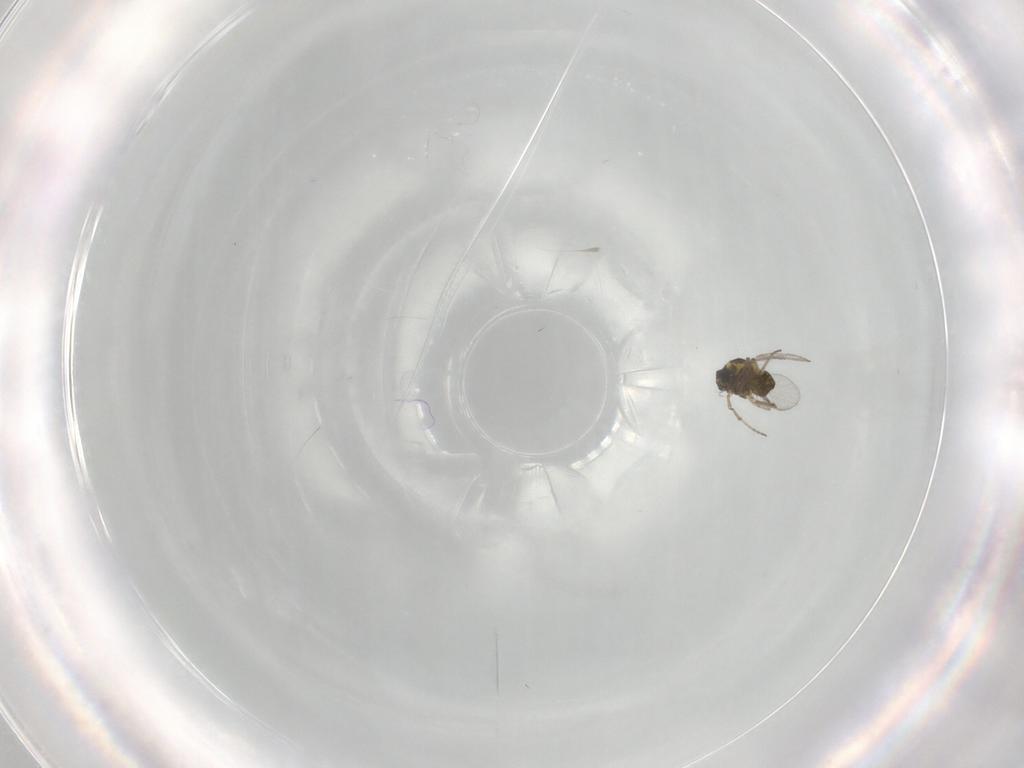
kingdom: Animalia
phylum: Arthropoda
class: Insecta
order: Diptera
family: Ceratopogonidae
